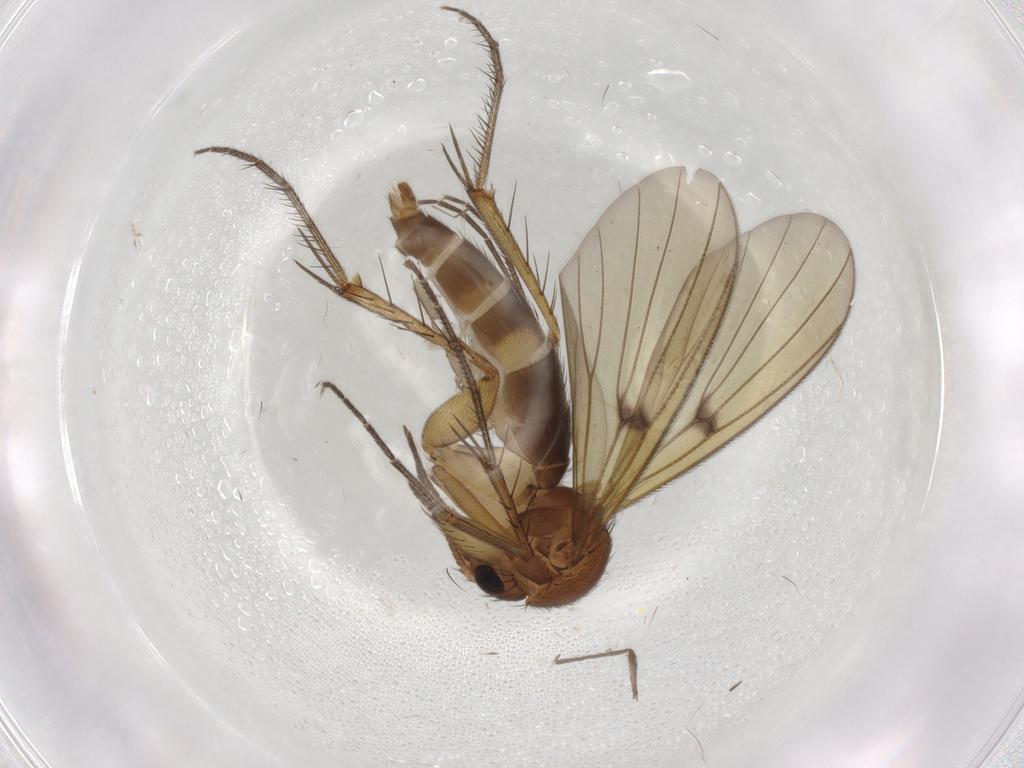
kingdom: Animalia
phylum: Arthropoda
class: Insecta
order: Diptera
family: Mycetophilidae
